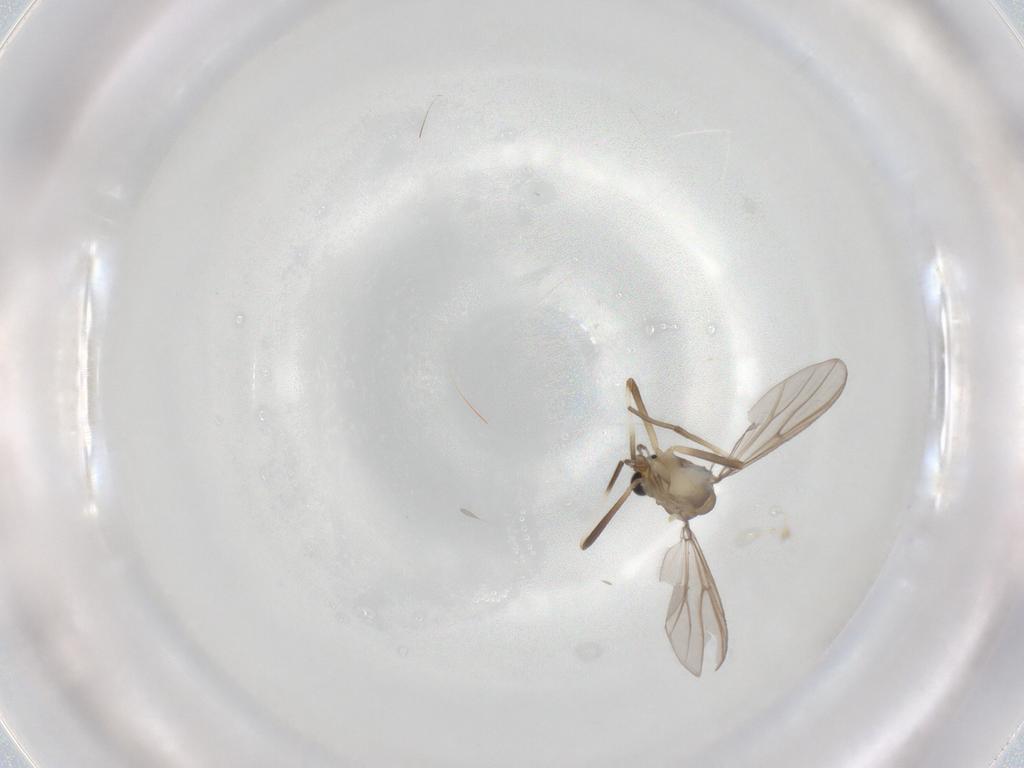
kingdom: Animalia
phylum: Arthropoda
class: Insecta
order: Diptera
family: Chironomidae
